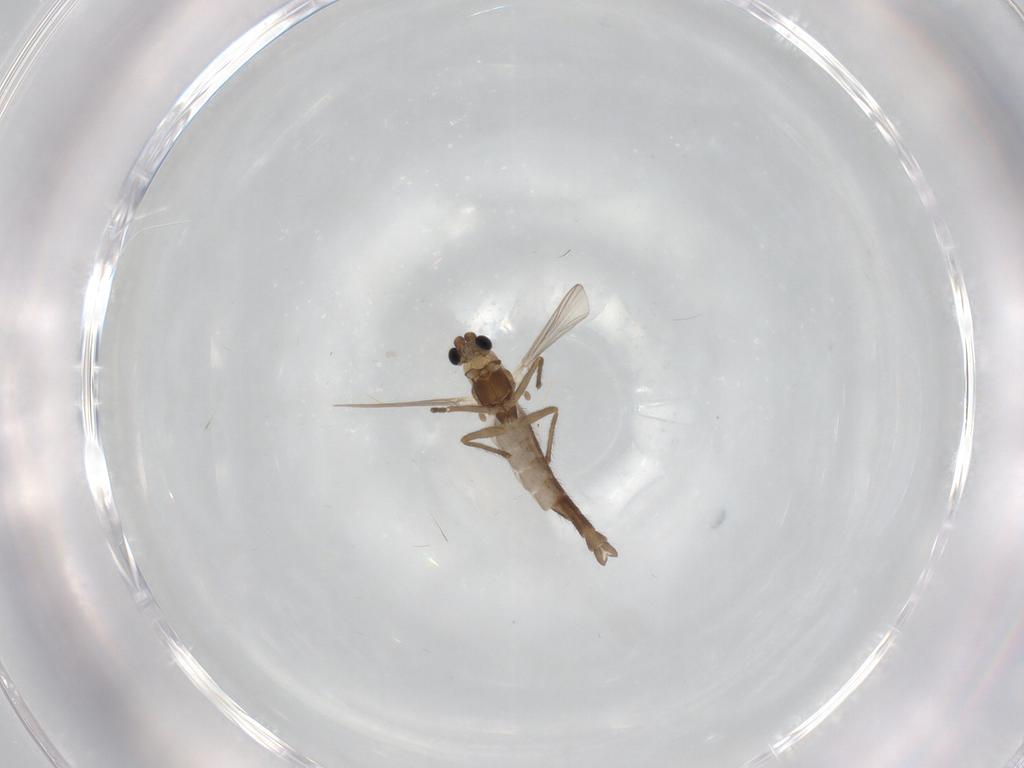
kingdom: Animalia
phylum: Arthropoda
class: Insecta
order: Diptera
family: Chironomidae
